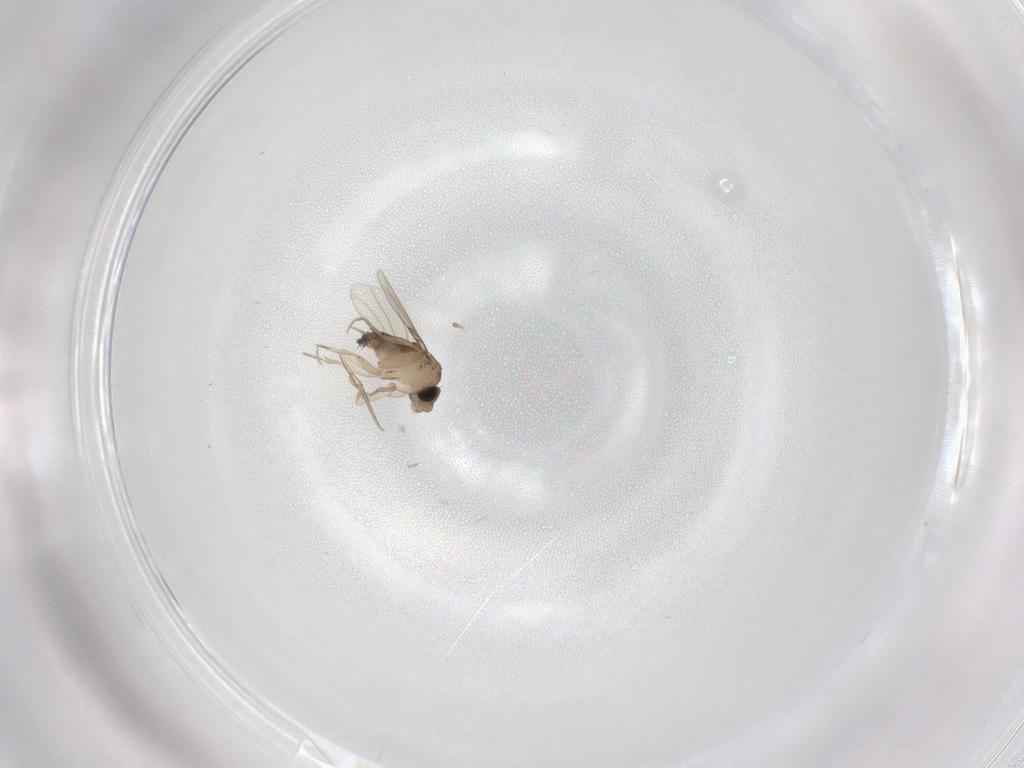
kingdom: Animalia
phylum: Arthropoda
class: Insecta
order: Diptera
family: Phoridae
